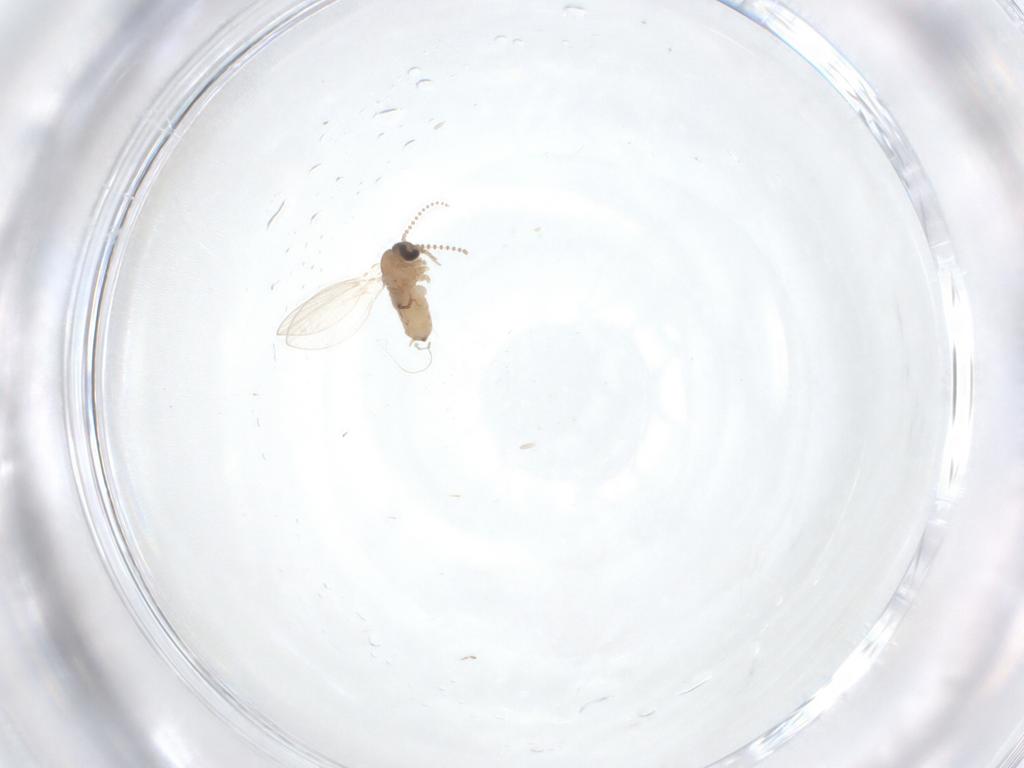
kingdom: Animalia
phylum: Arthropoda
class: Insecta
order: Diptera
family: Psychodidae
